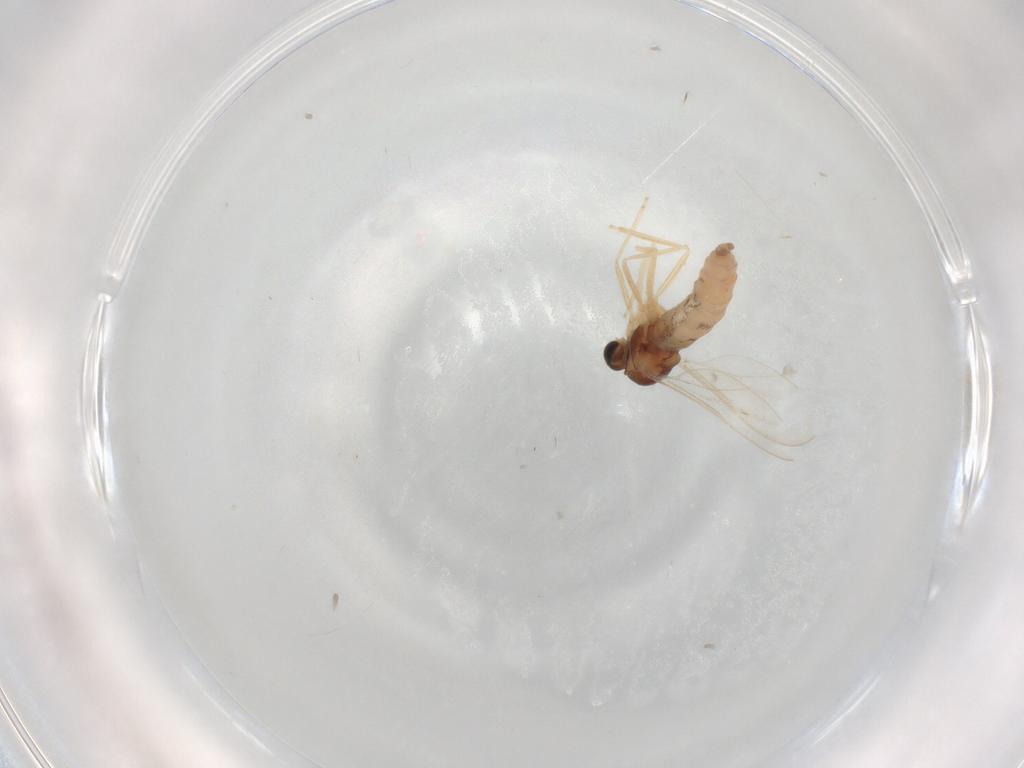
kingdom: Animalia
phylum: Arthropoda
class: Insecta
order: Diptera
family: Cecidomyiidae
